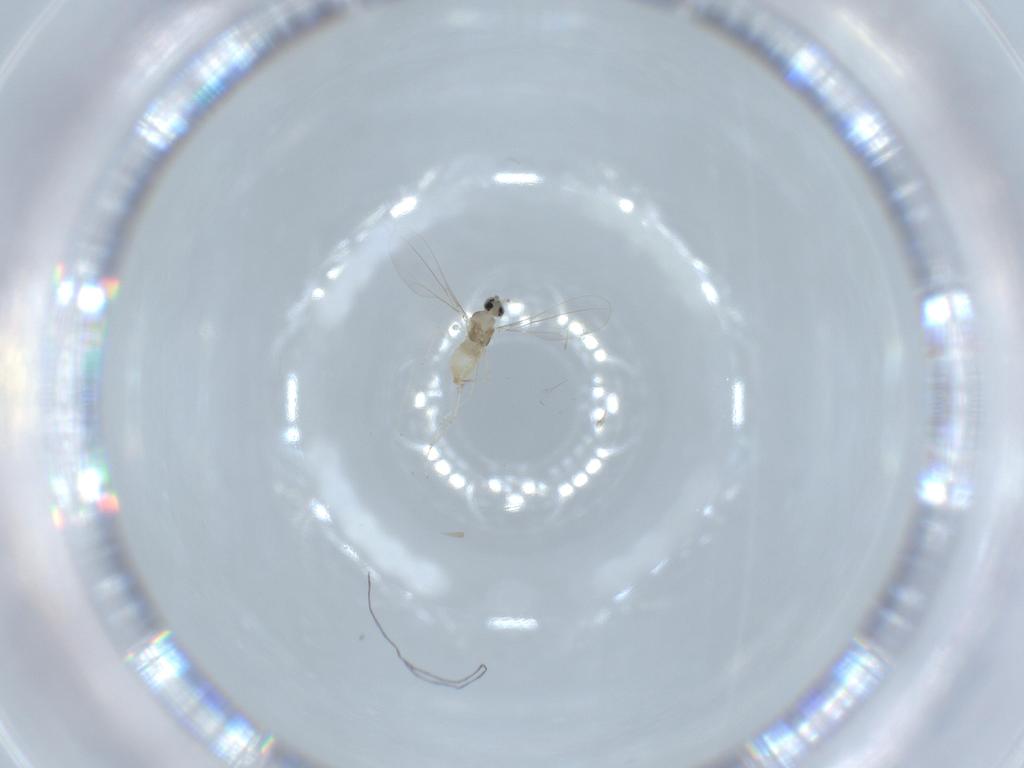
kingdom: Animalia
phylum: Arthropoda
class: Insecta
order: Diptera
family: Cecidomyiidae
